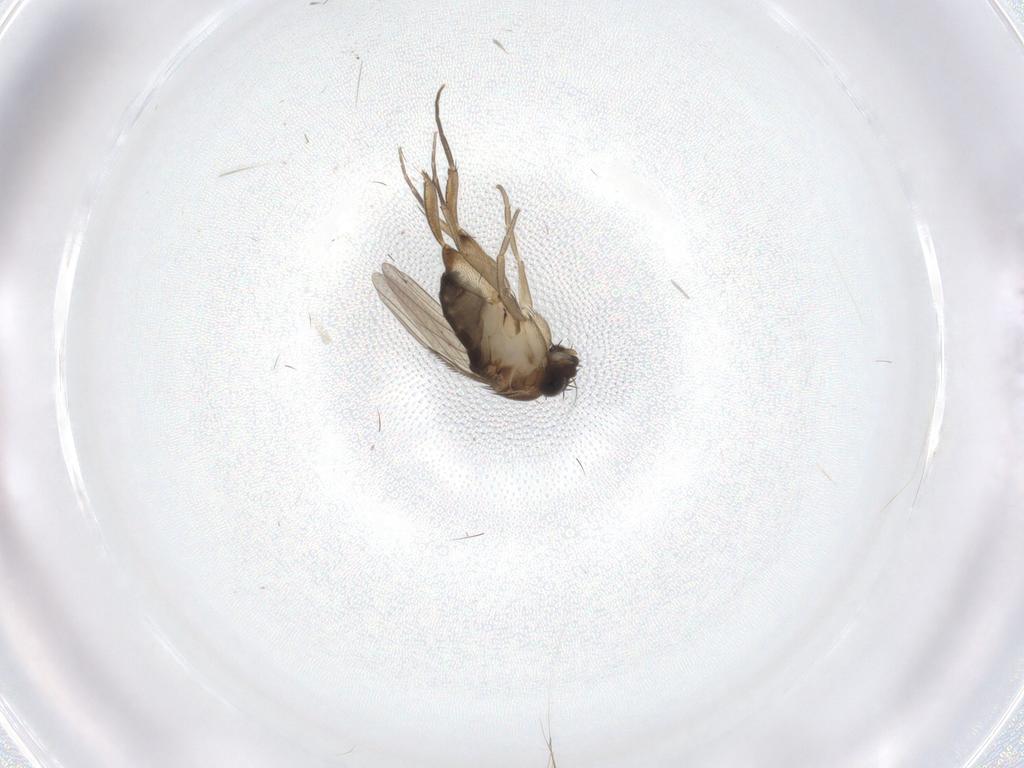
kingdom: Animalia
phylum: Arthropoda
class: Insecta
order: Diptera
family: Phoridae
